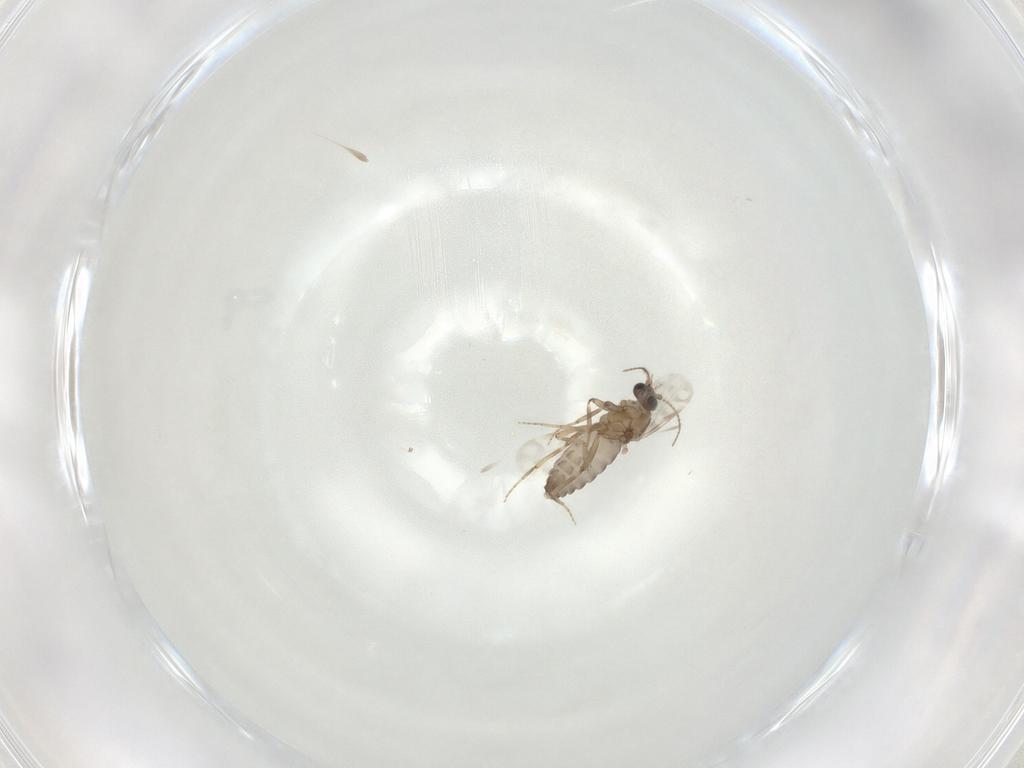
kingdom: Animalia
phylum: Arthropoda
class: Insecta
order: Diptera
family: Ceratopogonidae
